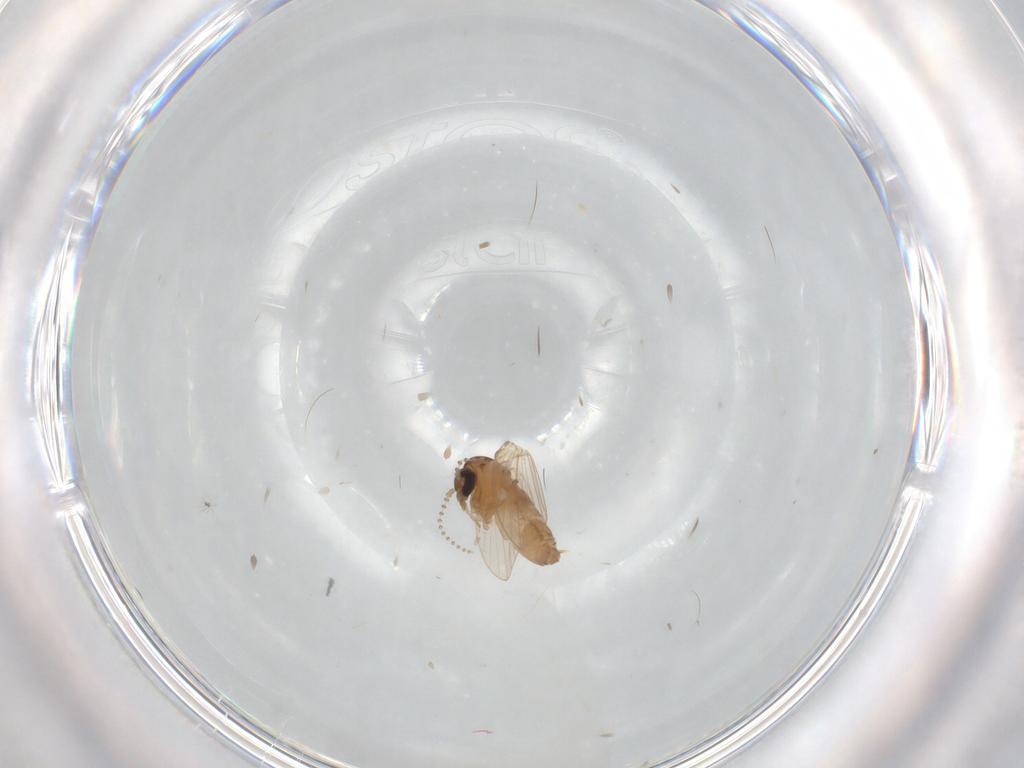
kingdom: Animalia
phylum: Arthropoda
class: Insecta
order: Diptera
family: Psychodidae
